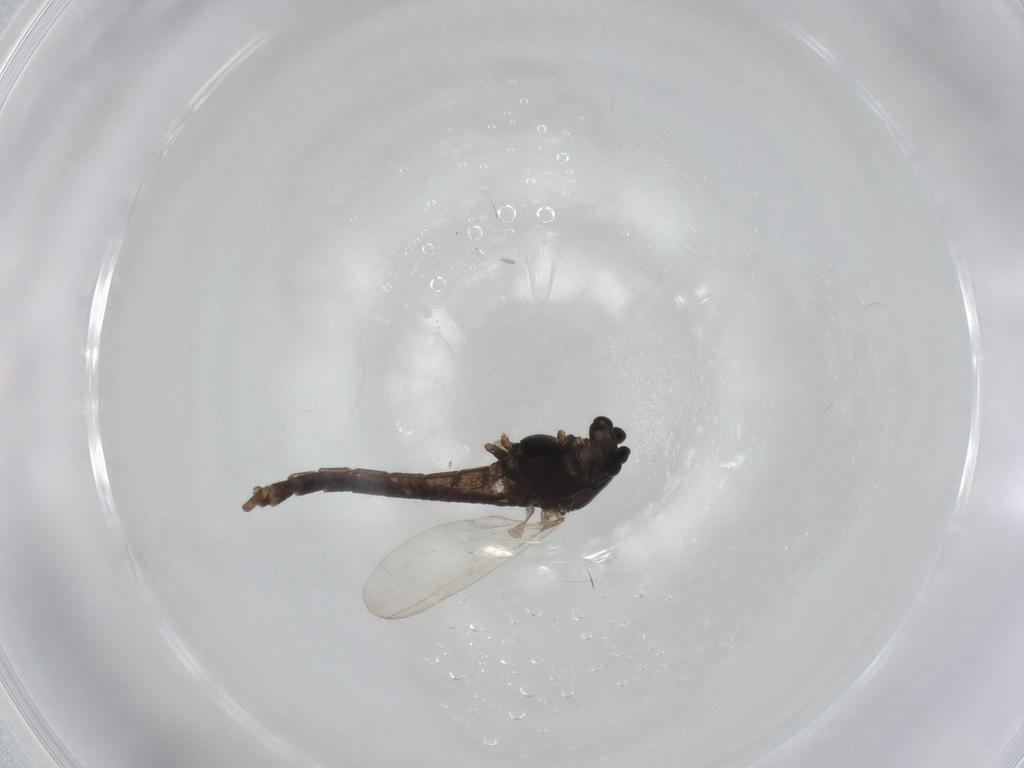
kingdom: Animalia
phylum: Arthropoda
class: Insecta
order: Diptera
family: Chironomidae
